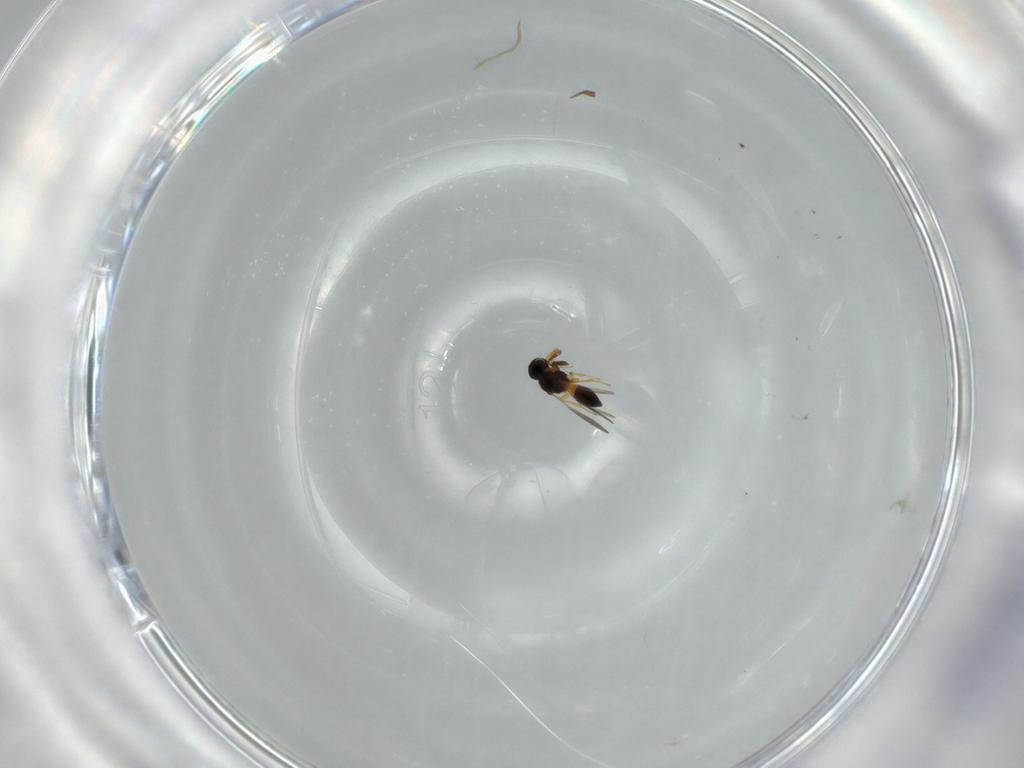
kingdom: Animalia
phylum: Arthropoda
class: Insecta
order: Hymenoptera
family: Platygastridae
